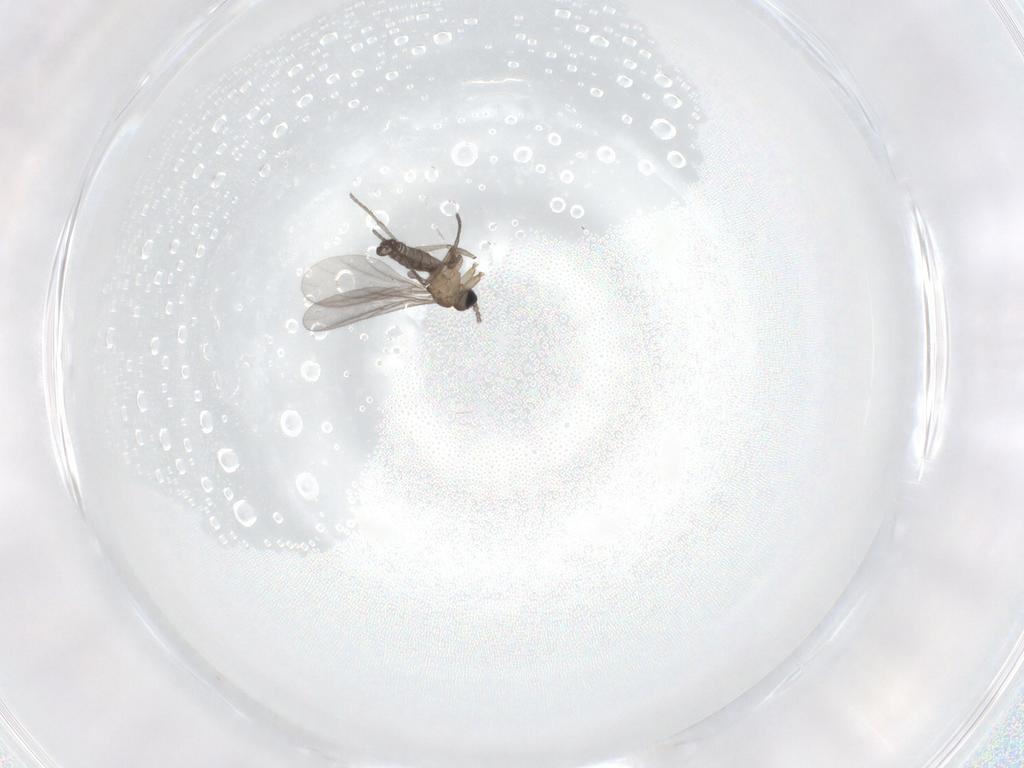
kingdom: Animalia
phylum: Arthropoda
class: Insecta
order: Diptera
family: Sciaridae
